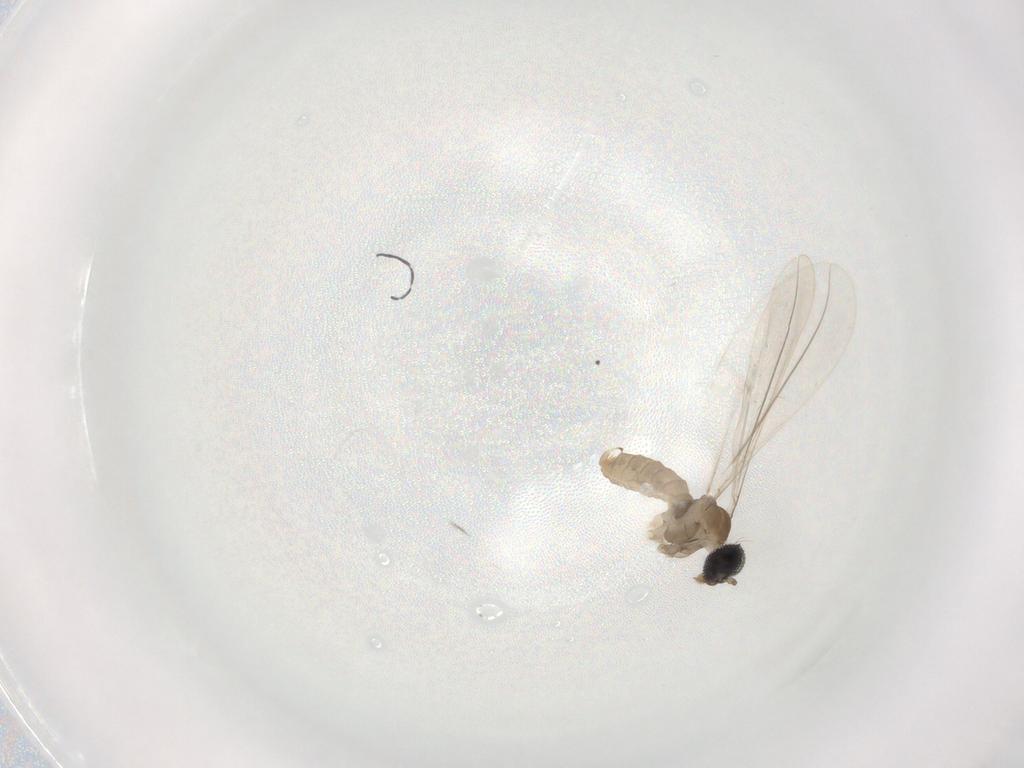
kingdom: Animalia
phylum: Arthropoda
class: Insecta
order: Diptera
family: Cecidomyiidae
